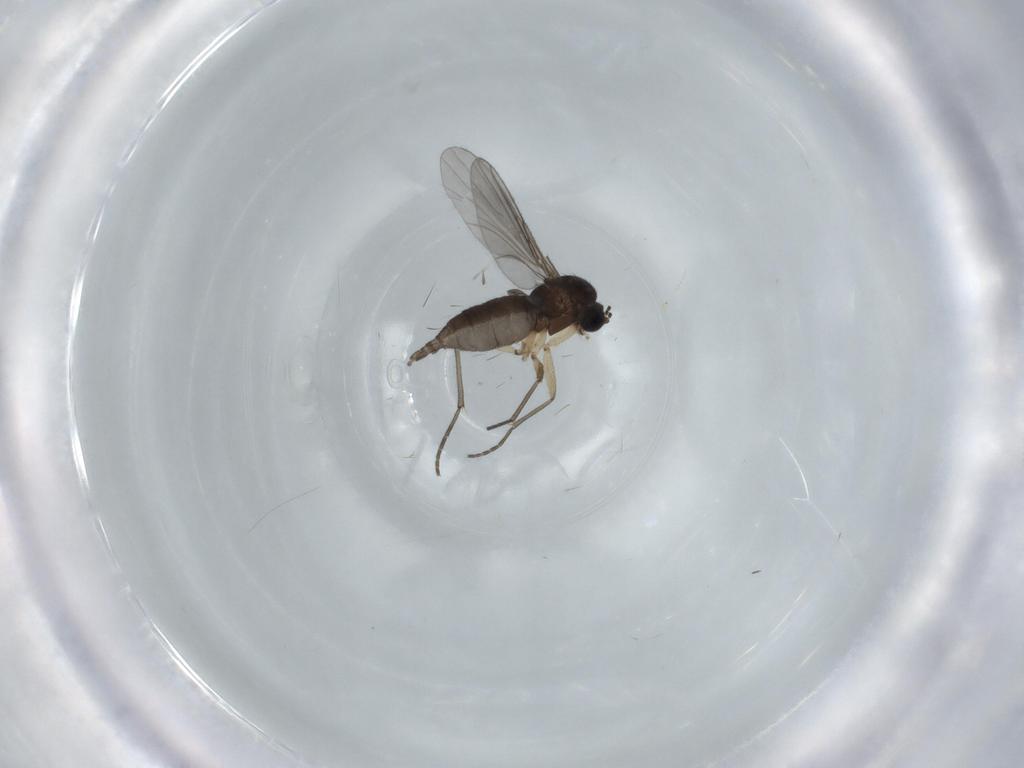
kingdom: Animalia
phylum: Arthropoda
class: Insecta
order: Diptera
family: Sciaridae
